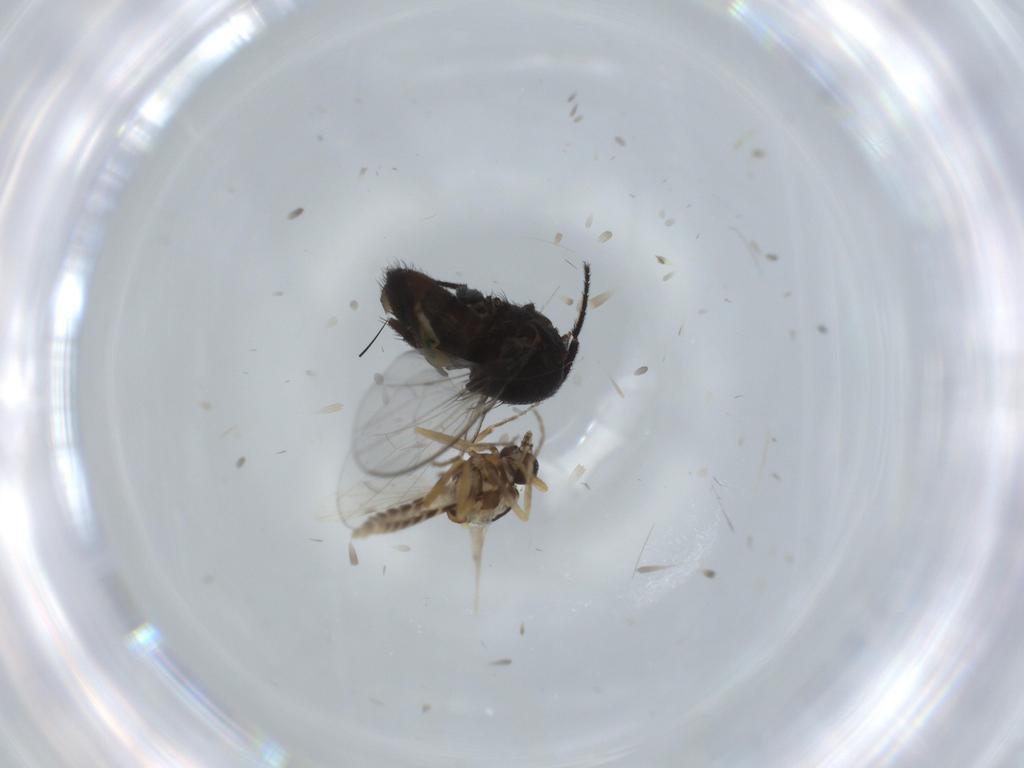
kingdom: Animalia
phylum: Arthropoda
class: Insecta
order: Diptera
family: Milichiidae
